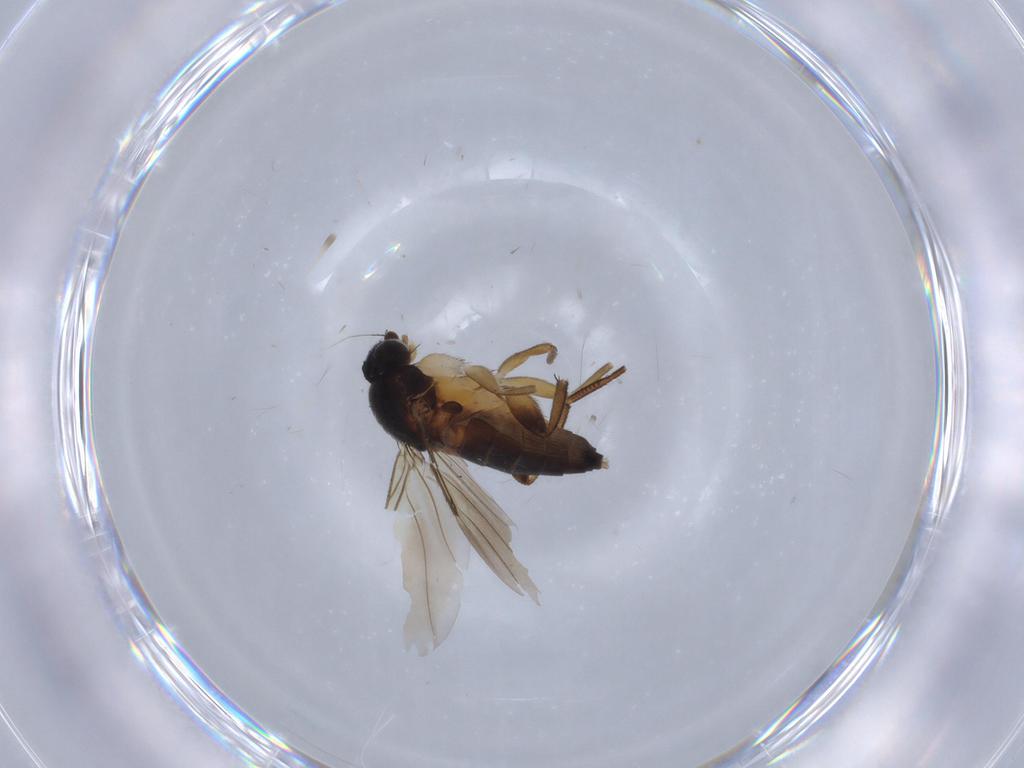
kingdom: Animalia
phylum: Arthropoda
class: Insecta
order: Diptera
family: Phoridae
